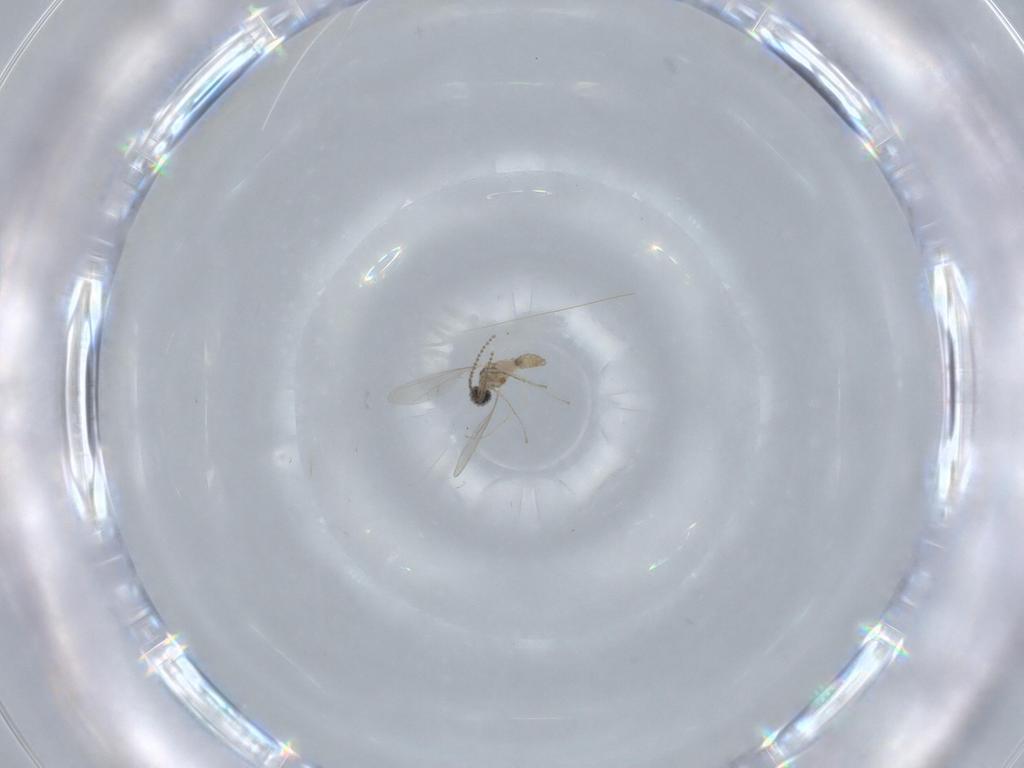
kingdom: Animalia
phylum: Arthropoda
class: Insecta
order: Diptera
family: Cecidomyiidae
